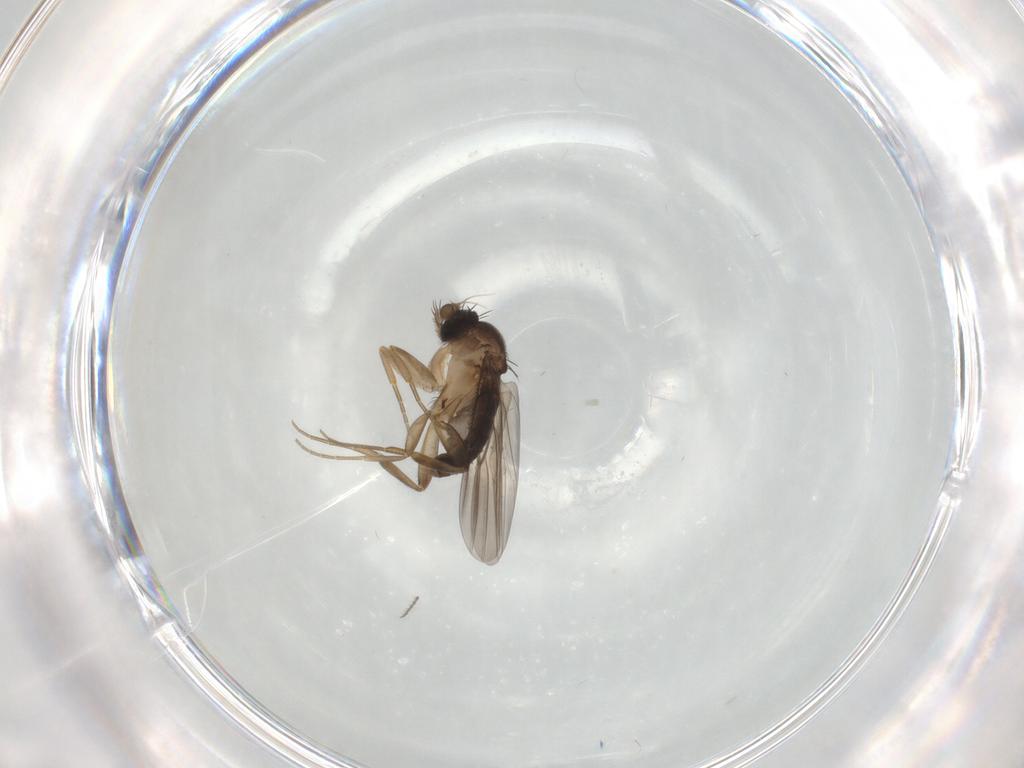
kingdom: Animalia
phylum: Arthropoda
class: Insecta
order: Diptera
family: Phoridae
